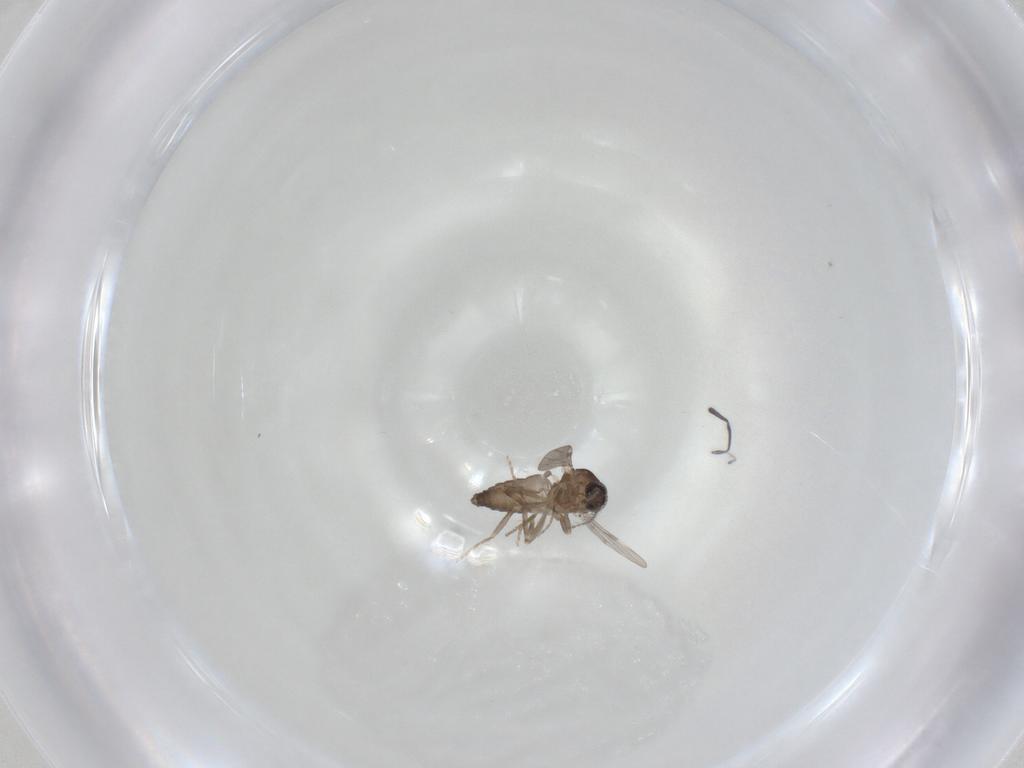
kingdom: Animalia
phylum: Arthropoda
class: Insecta
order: Diptera
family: Ceratopogonidae
